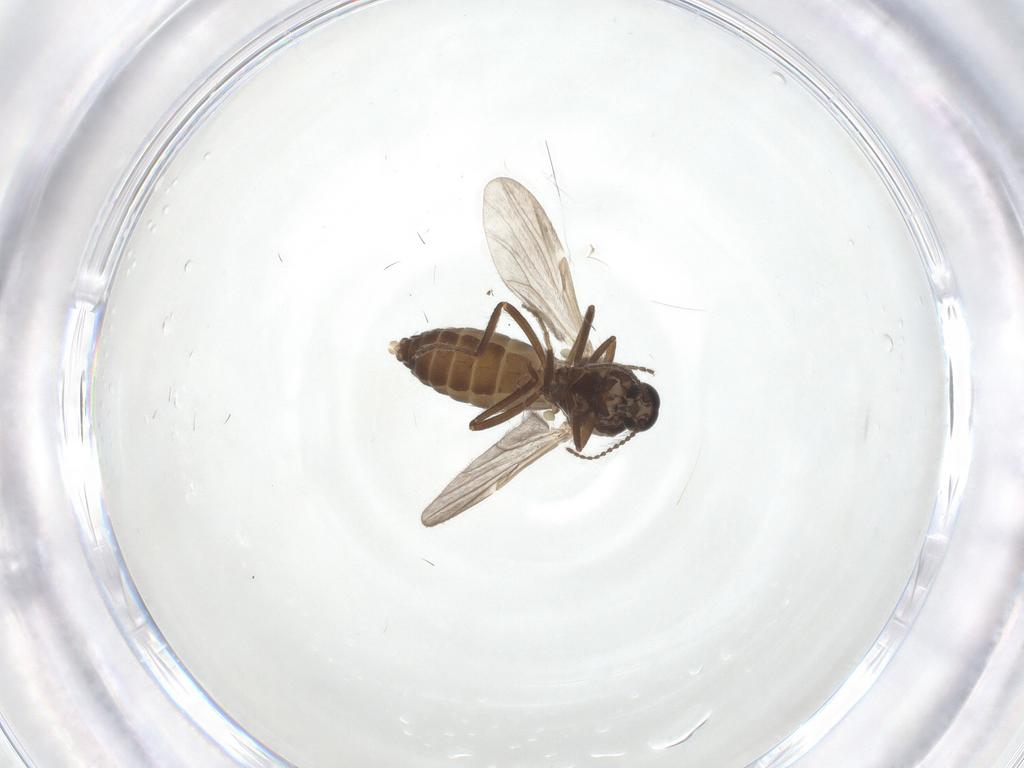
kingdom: Animalia
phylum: Arthropoda
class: Insecta
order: Diptera
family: Ceratopogonidae
